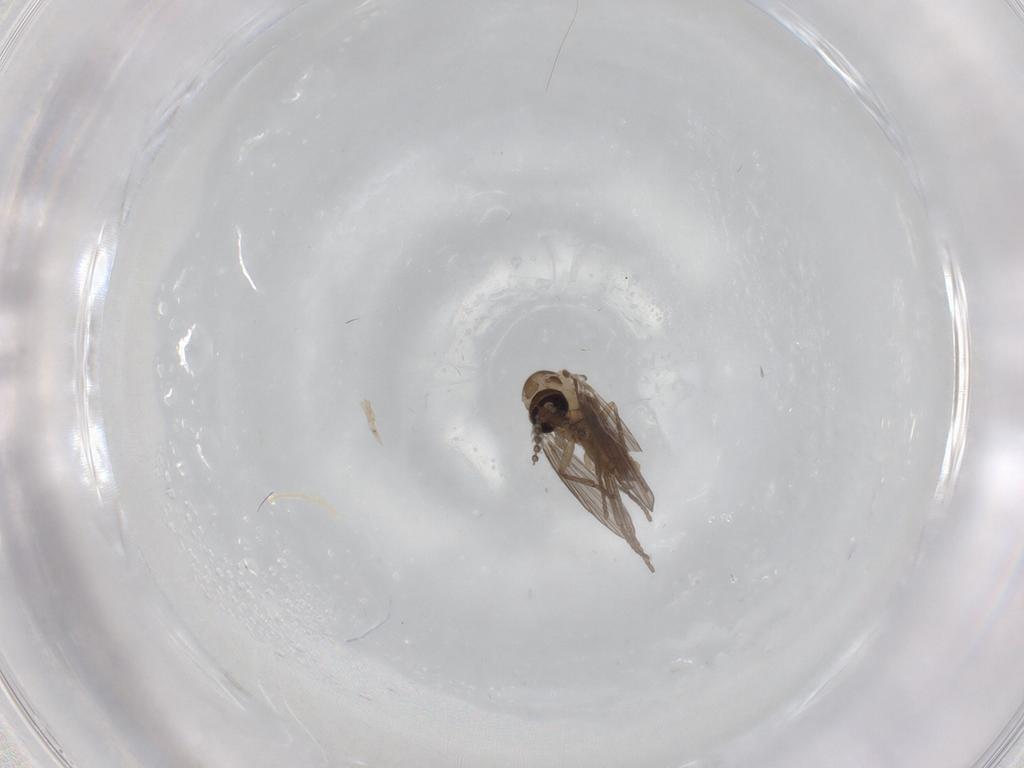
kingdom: Animalia
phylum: Arthropoda
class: Insecta
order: Diptera
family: Psychodidae
